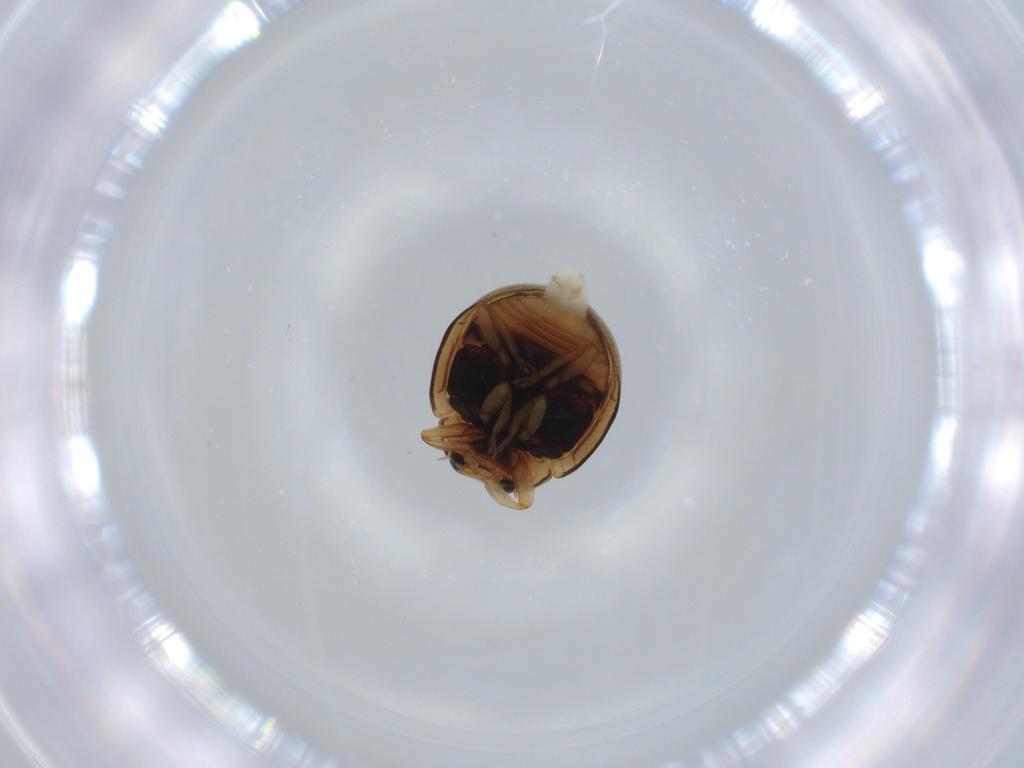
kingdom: Animalia
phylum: Arthropoda
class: Insecta
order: Coleoptera
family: Coccinellidae
